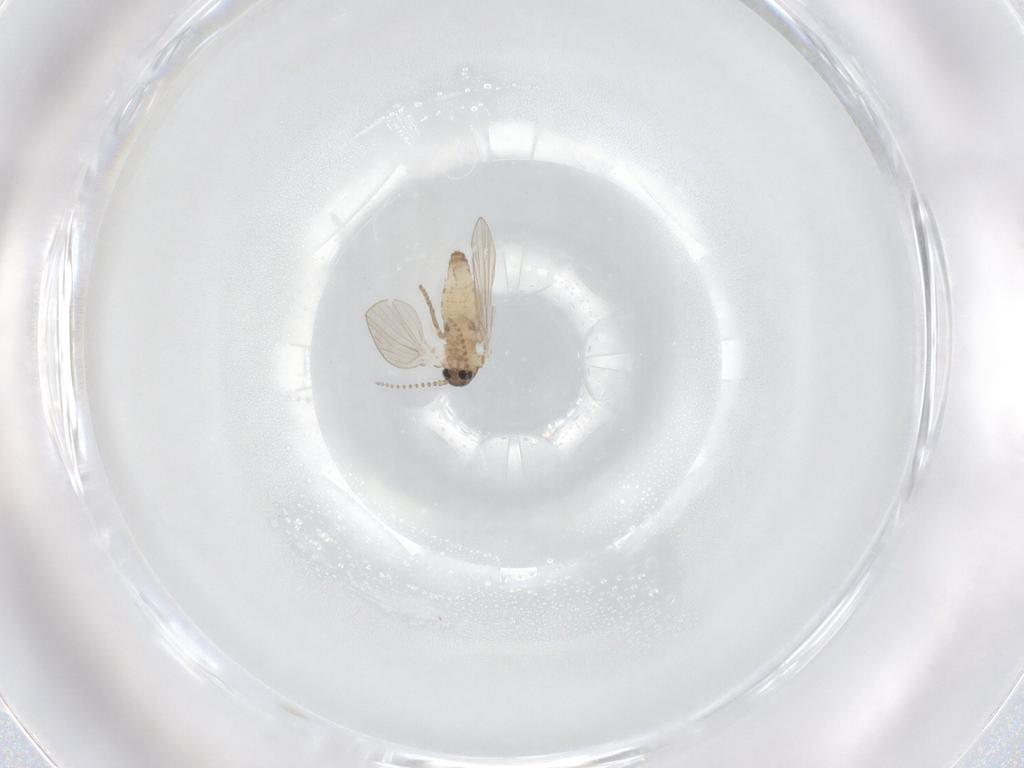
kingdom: Animalia
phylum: Arthropoda
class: Insecta
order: Diptera
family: Psychodidae
